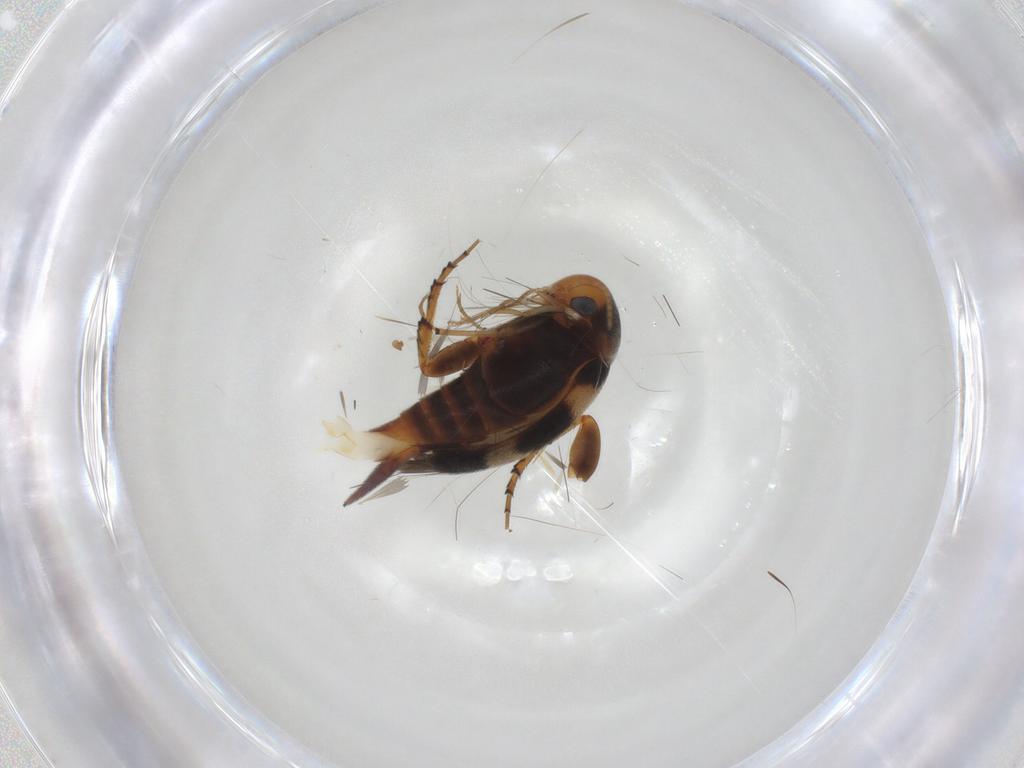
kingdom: Animalia
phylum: Arthropoda
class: Insecta
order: Coleoptera
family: Mordellidae
